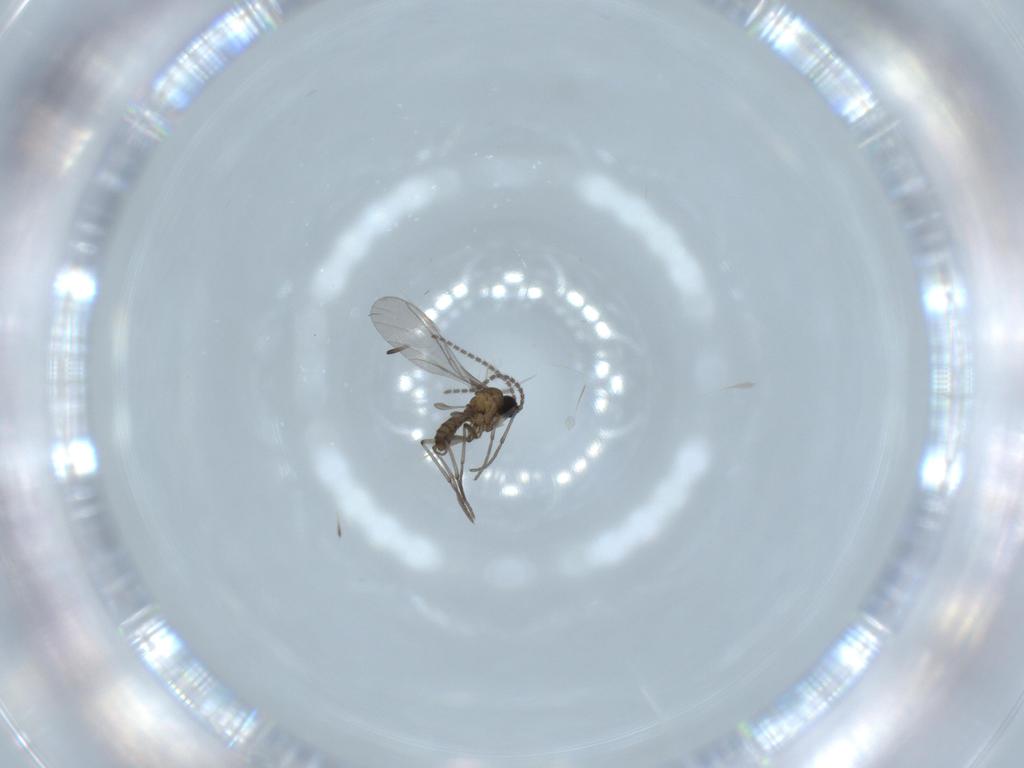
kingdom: Animalia
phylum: Arthropoda
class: Insecta
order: Diptera
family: Sciaridae
